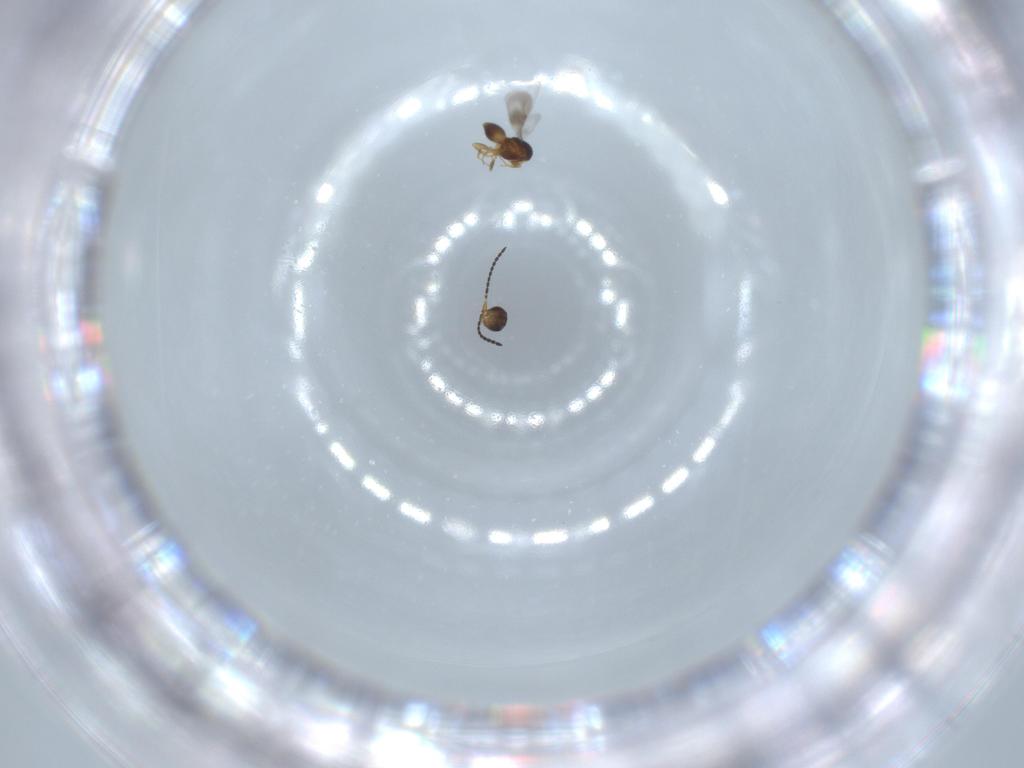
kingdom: Animalia
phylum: Arthropoda
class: Insecta
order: Hymenoptera
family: Ceraphronidae
